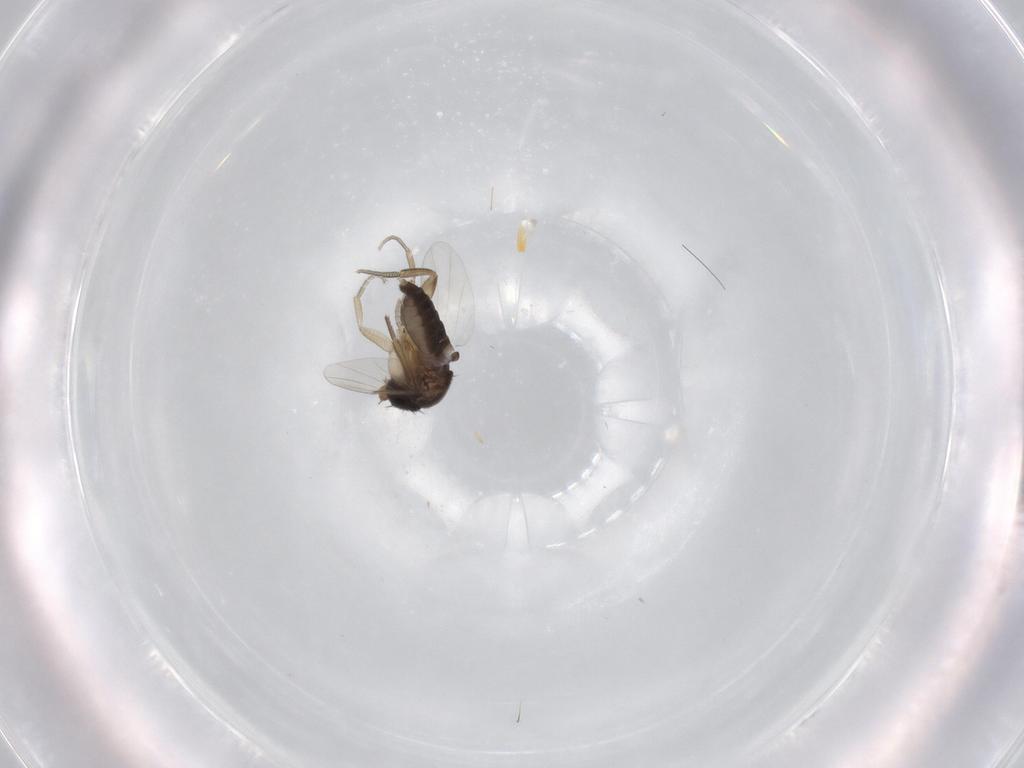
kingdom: Animalia
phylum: Arthropoda
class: Insecta
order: Diptera
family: Phoridae
